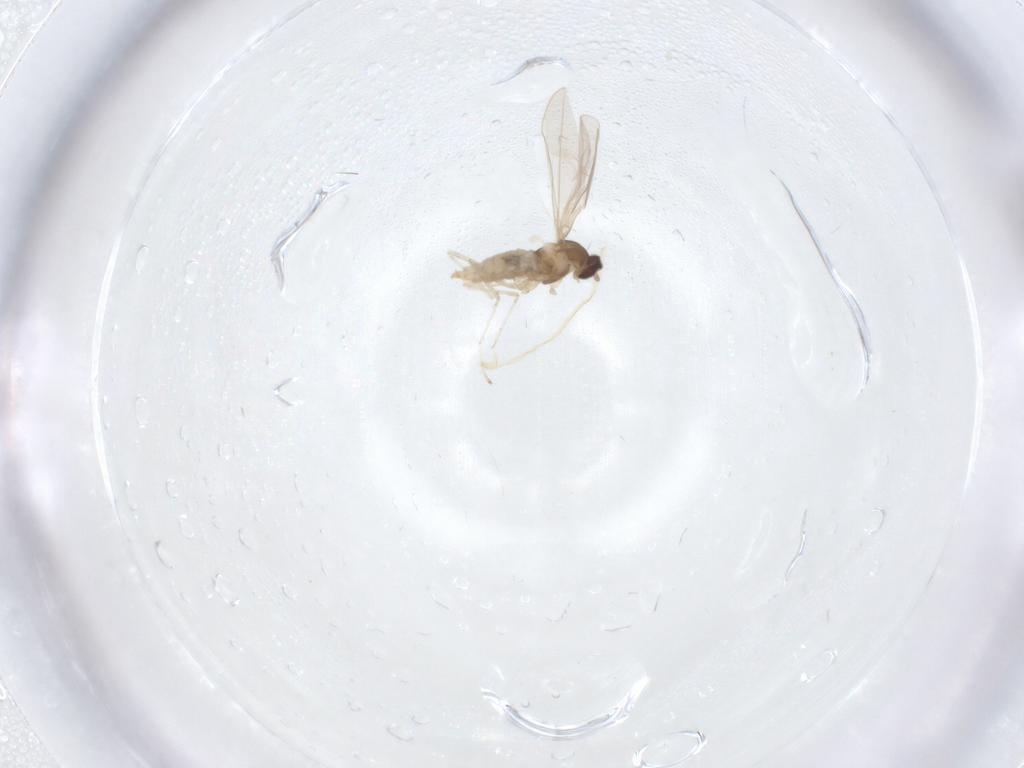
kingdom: Animalia
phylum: Arthropoda
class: Insecta
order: Diptera
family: Cecidomyiidae
